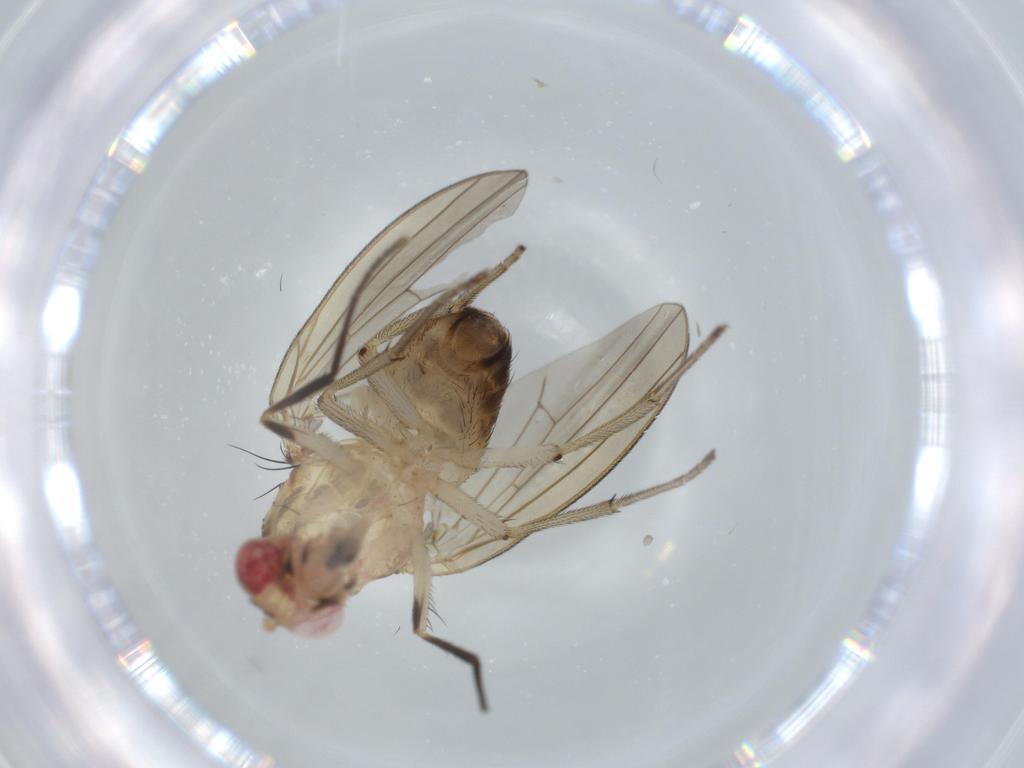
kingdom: Animalia
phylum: Arthropoda
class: Insecta
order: Diptera
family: Lauxaniidae
